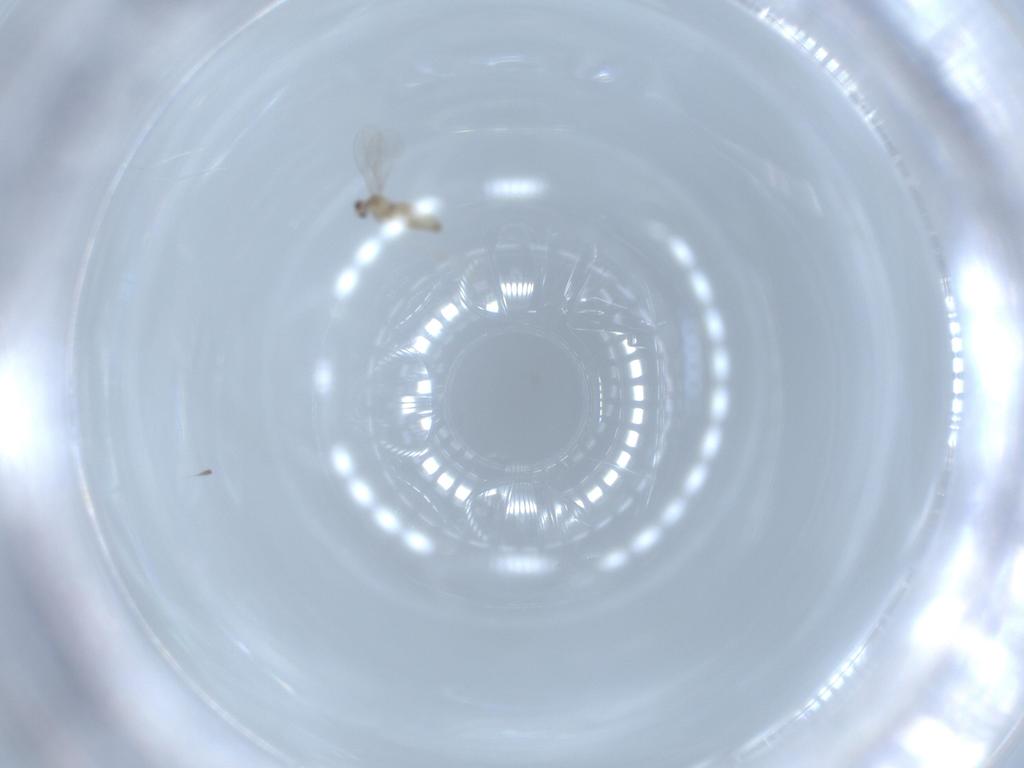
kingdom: Animalia
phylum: Arthropoda
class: Insecta
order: Diptera
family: Cecidomyiidae
